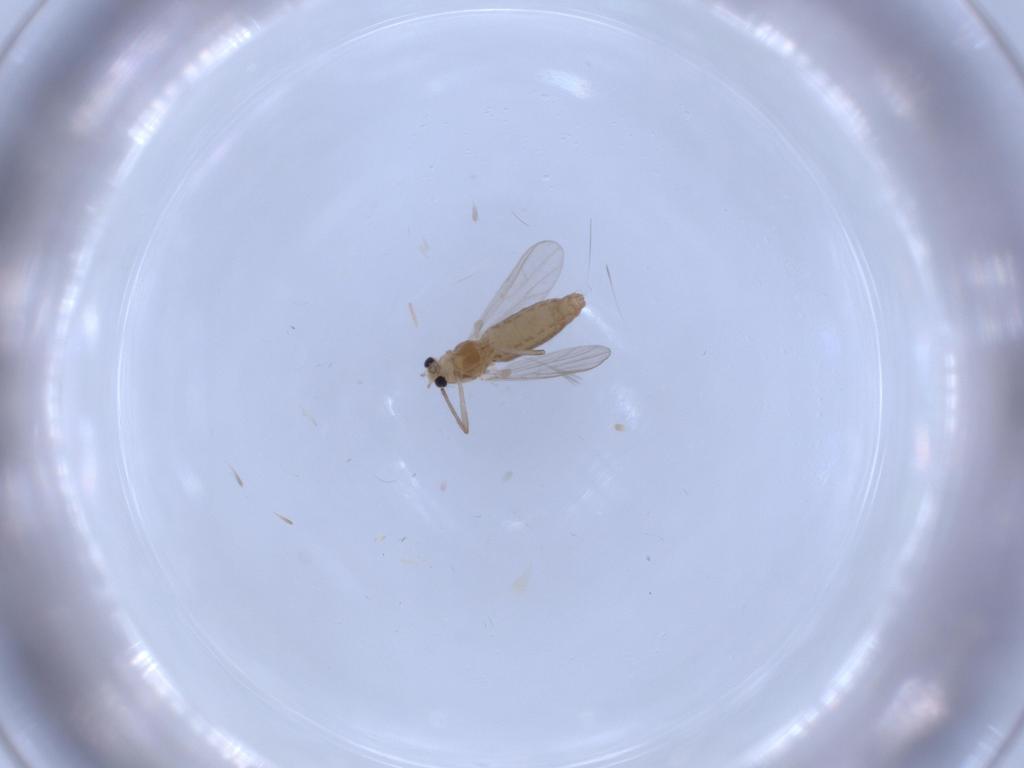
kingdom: Animalia
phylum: Arthropoda
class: Insecta
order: Diptera
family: Chironomidae
